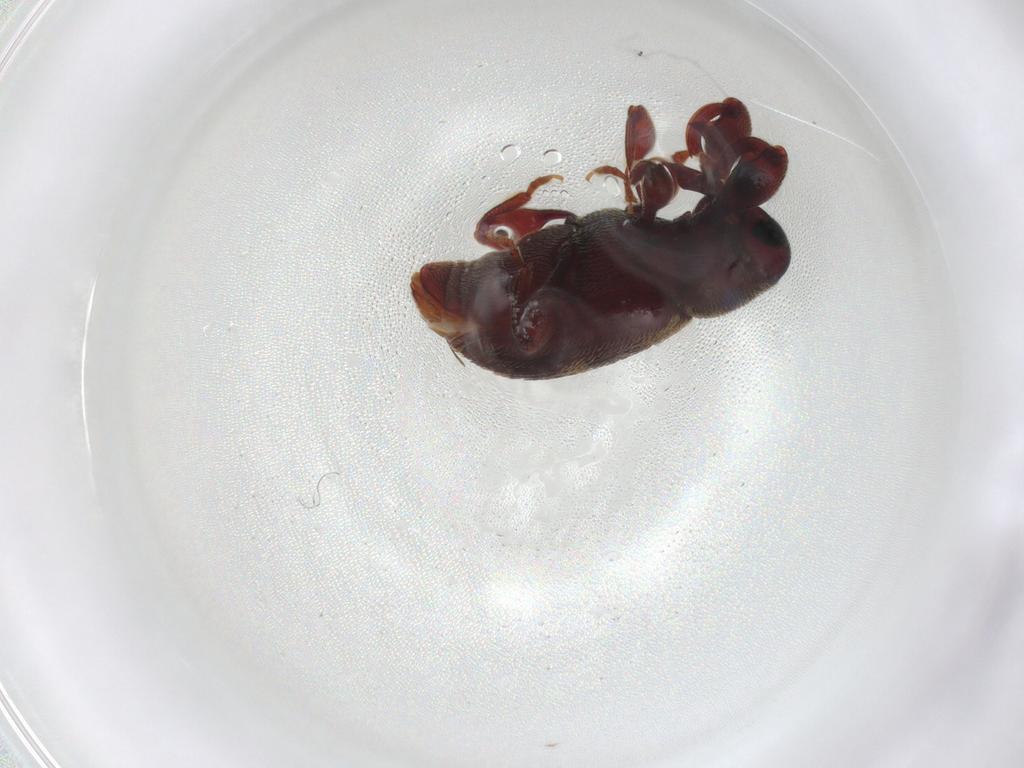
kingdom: Animalia
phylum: Arthropoda
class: Insecta
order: Coleoptera
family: Curculionidae
